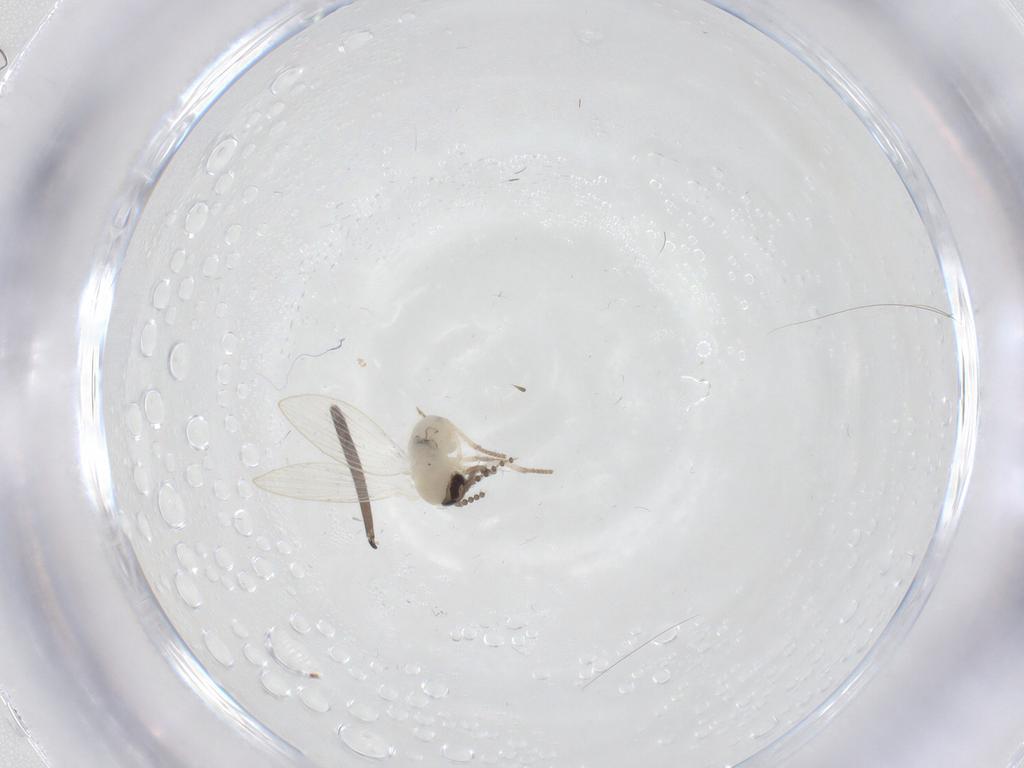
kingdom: Animalia
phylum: Arthropoda
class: Insecta
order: Diptera
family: Sciaridae
